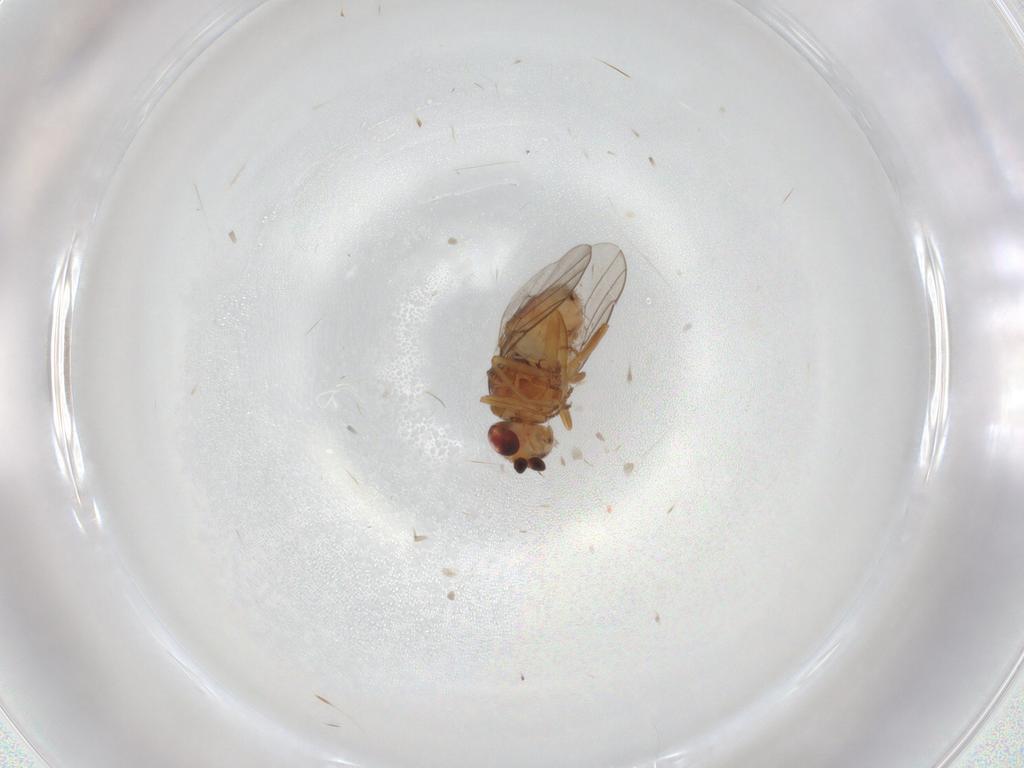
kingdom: Animalia
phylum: Arthropoda
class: Insecta
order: Diptera
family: Chloropidae
